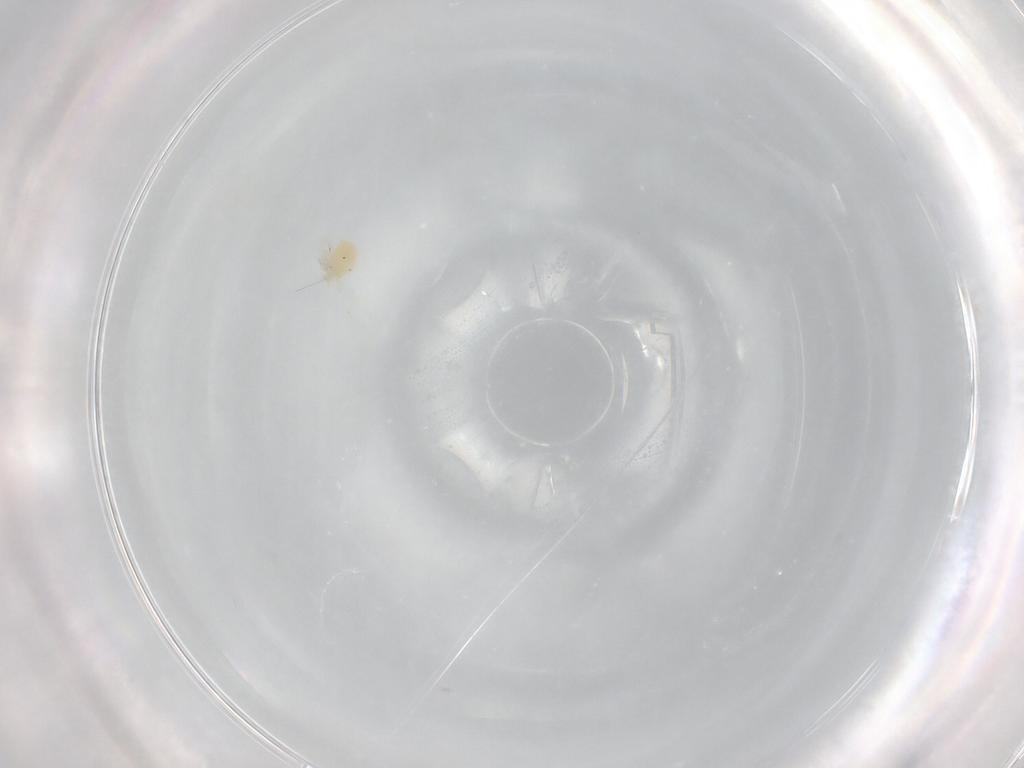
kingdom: Animalia
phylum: Arthropoda
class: Arachnida
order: Trombidiformes
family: Anystidae
